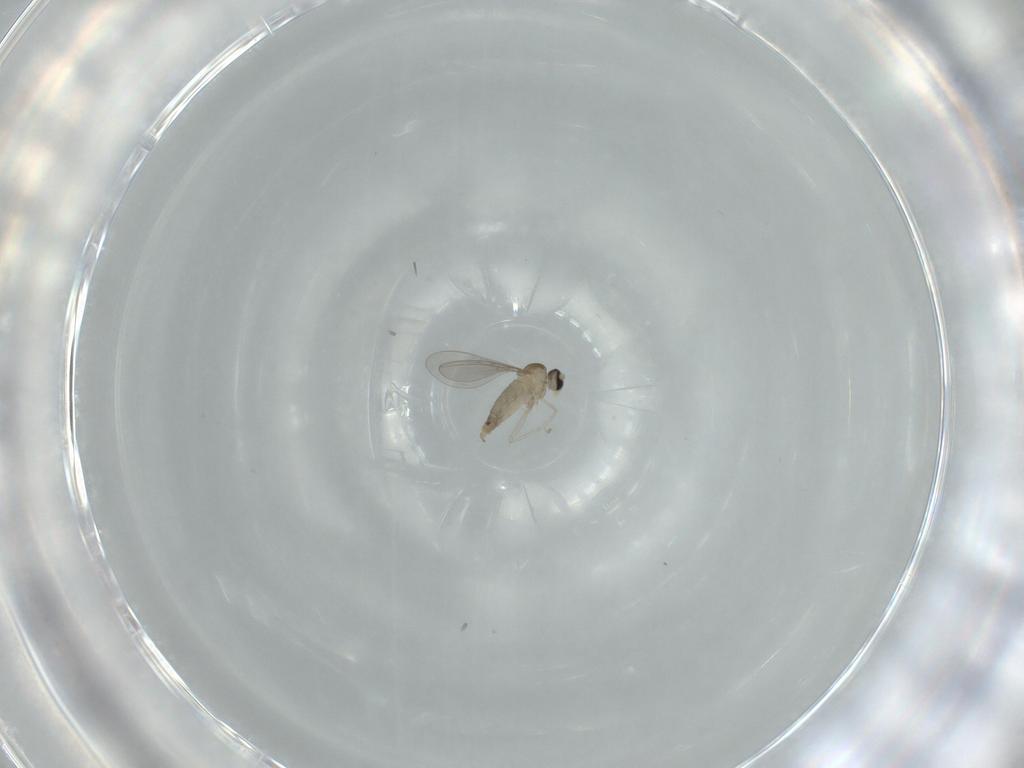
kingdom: Animalia
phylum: Arthropoda
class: Insecta
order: Diptera
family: Cecidomyiidae
